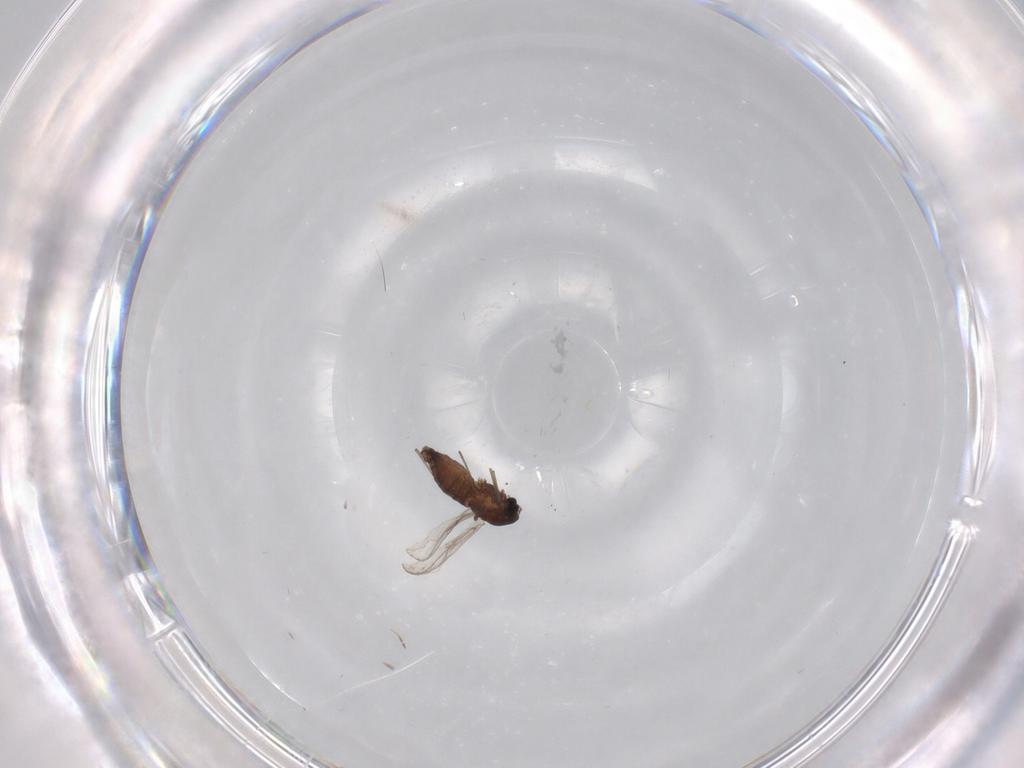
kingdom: Animalia
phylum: Arthropoda
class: Insecta
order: Diptera
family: Chironomidae
